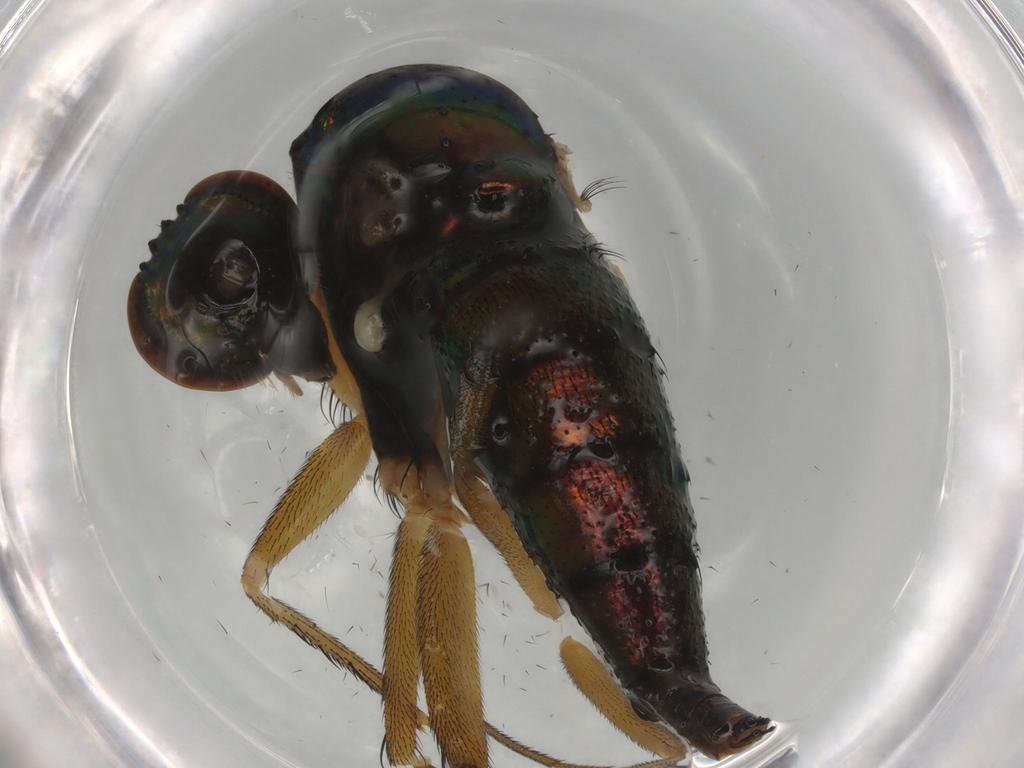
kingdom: Animalia
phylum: Arthropoda
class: Insecta
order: Diptera
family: Dolichopodidae
